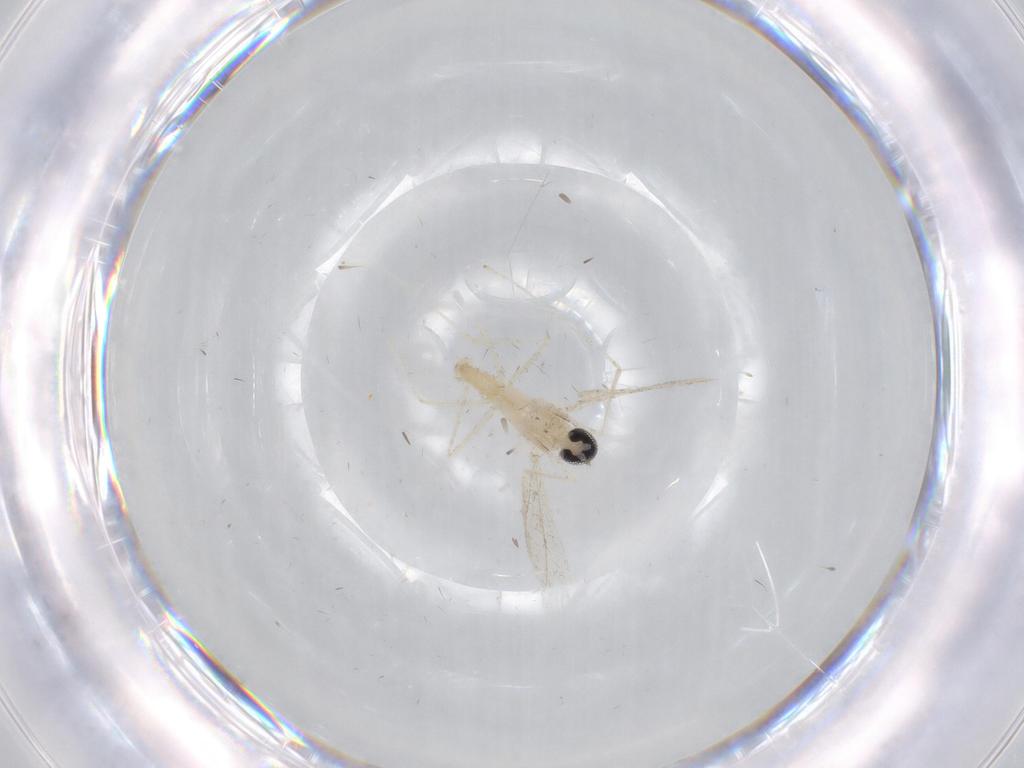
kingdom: Animalia
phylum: Arthropoda
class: Insecta
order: Diptera
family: Cecidomyiidae
